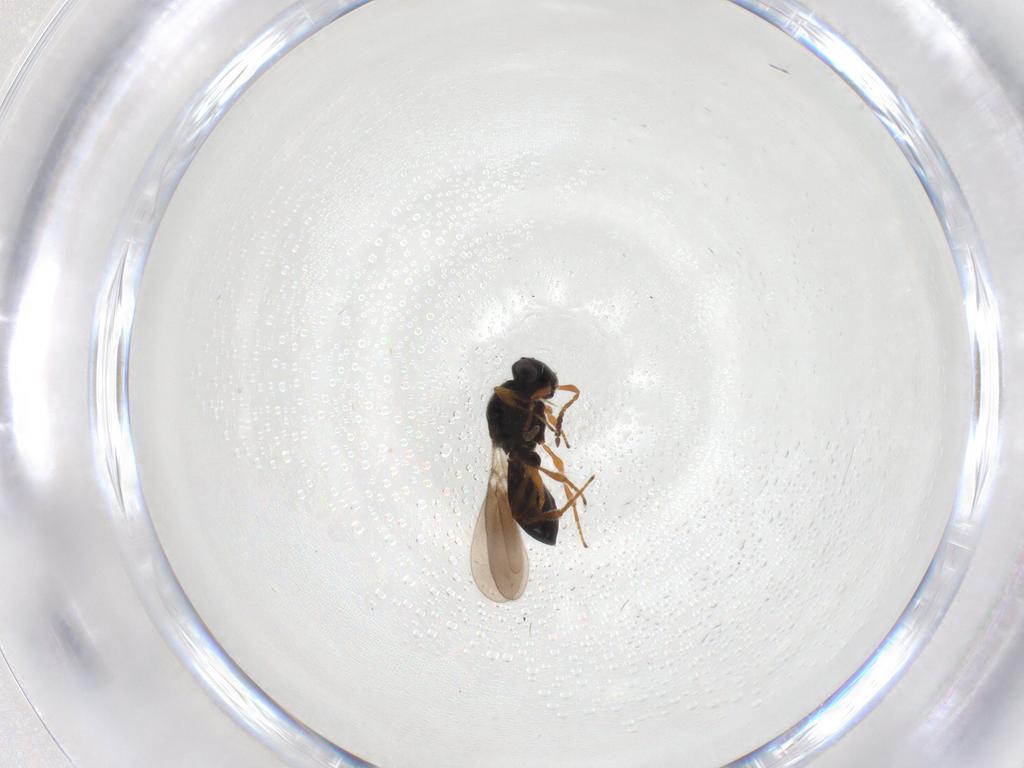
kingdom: Animalia
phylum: Arthropoda
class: Insecta
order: Hymenoptera
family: Platygastridae
